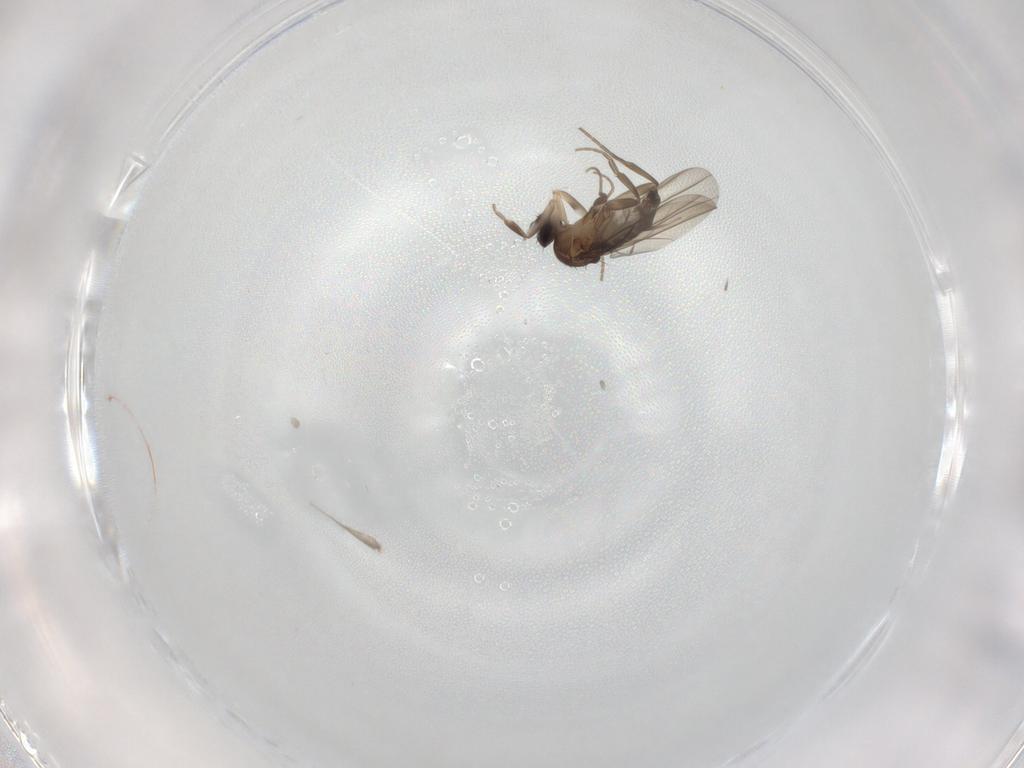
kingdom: Animalia
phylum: Arthropoda
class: Insecta
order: Diptera
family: Phoridae
